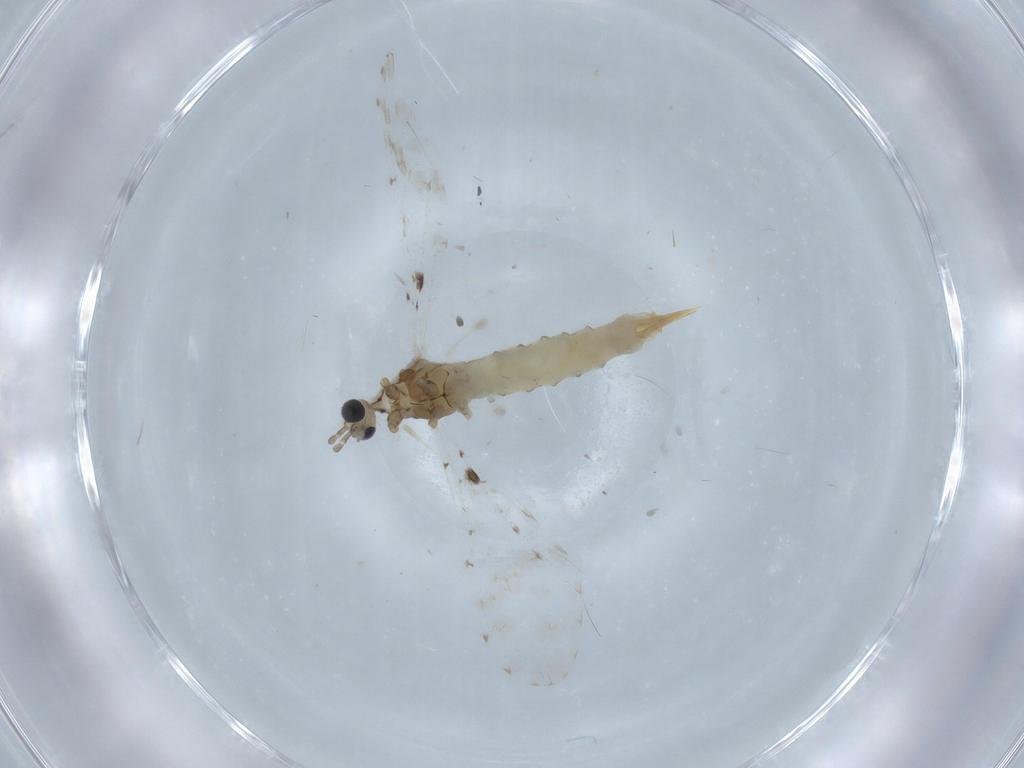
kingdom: Animalia
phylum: Arthropoda
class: Insecta
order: Diptera
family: Limoniidae
